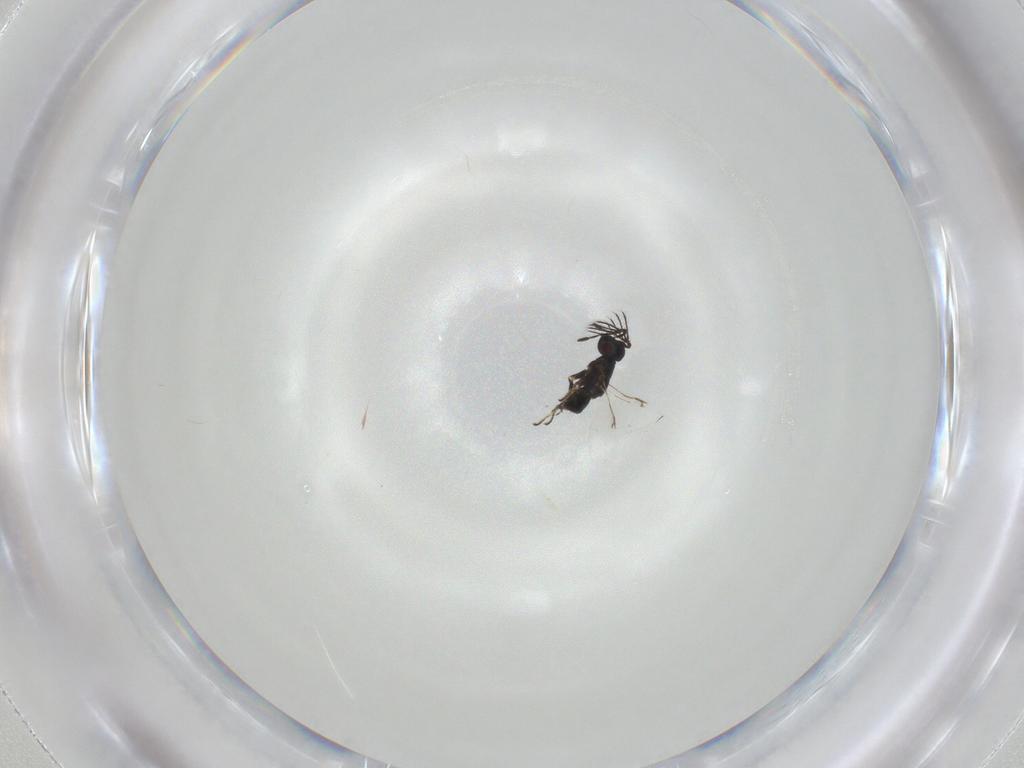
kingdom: Animalia
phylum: Arthropoda
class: Insecta
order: Hymenoptera
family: Encyrtidae
